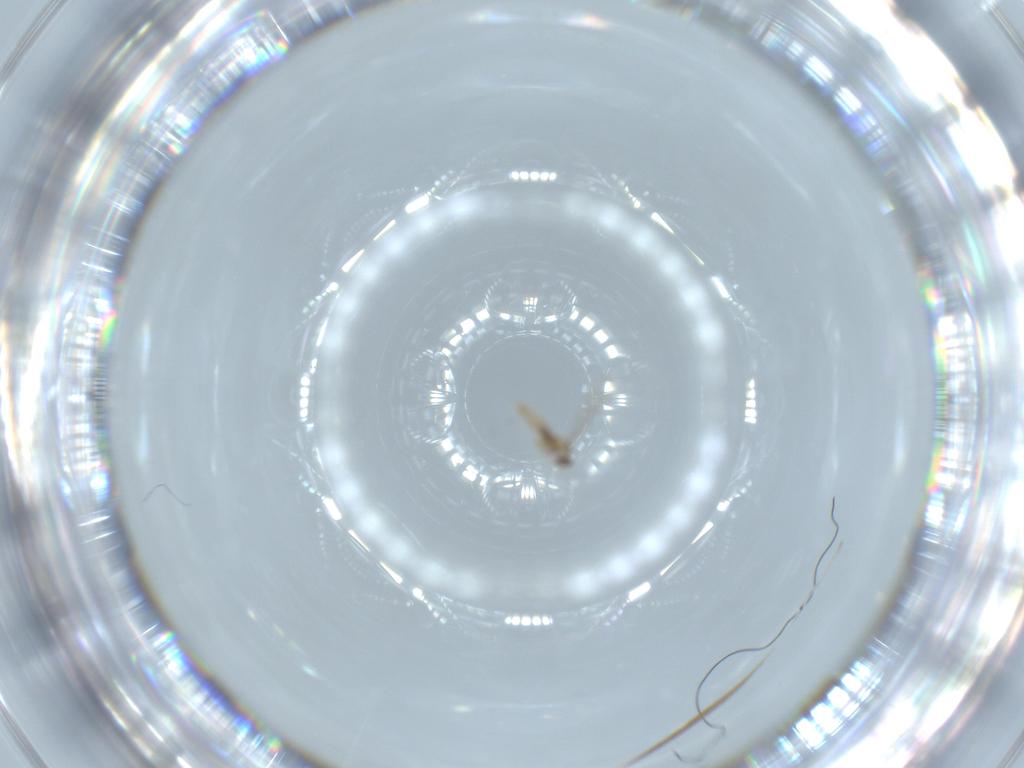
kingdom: Animalia
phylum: Arthropoda
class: Insecta
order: Diptera
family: Cecidomyiidae
